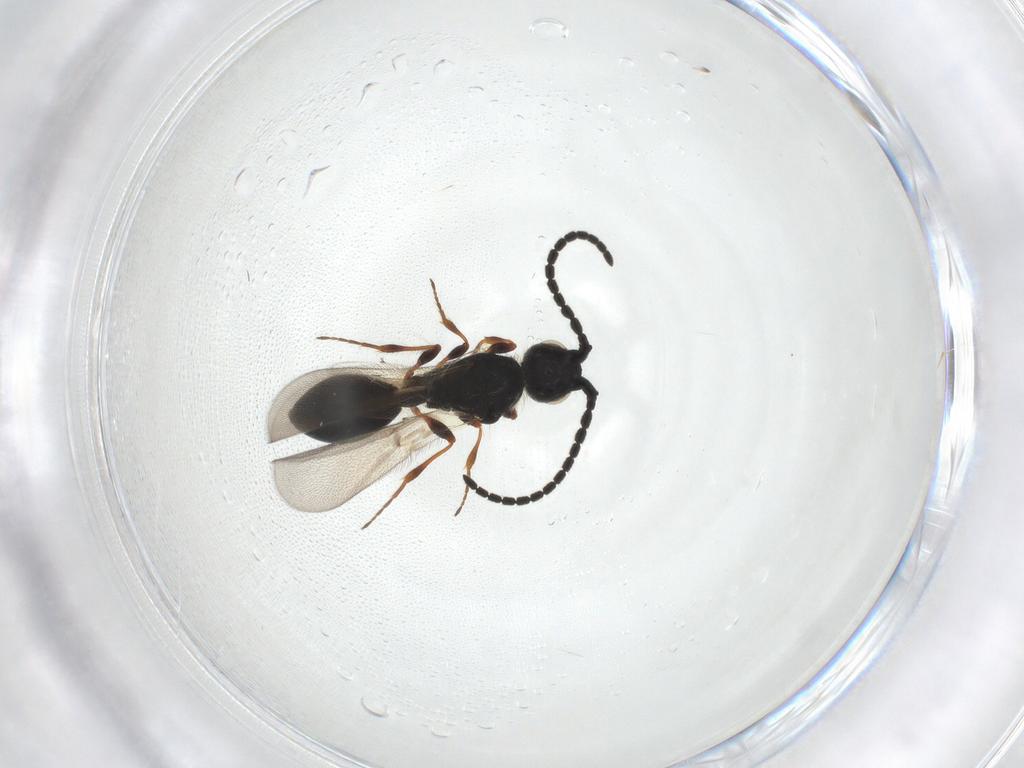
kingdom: Animalia
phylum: Arthropoda
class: Insecta
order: Hymenoptera
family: Diapriidae
